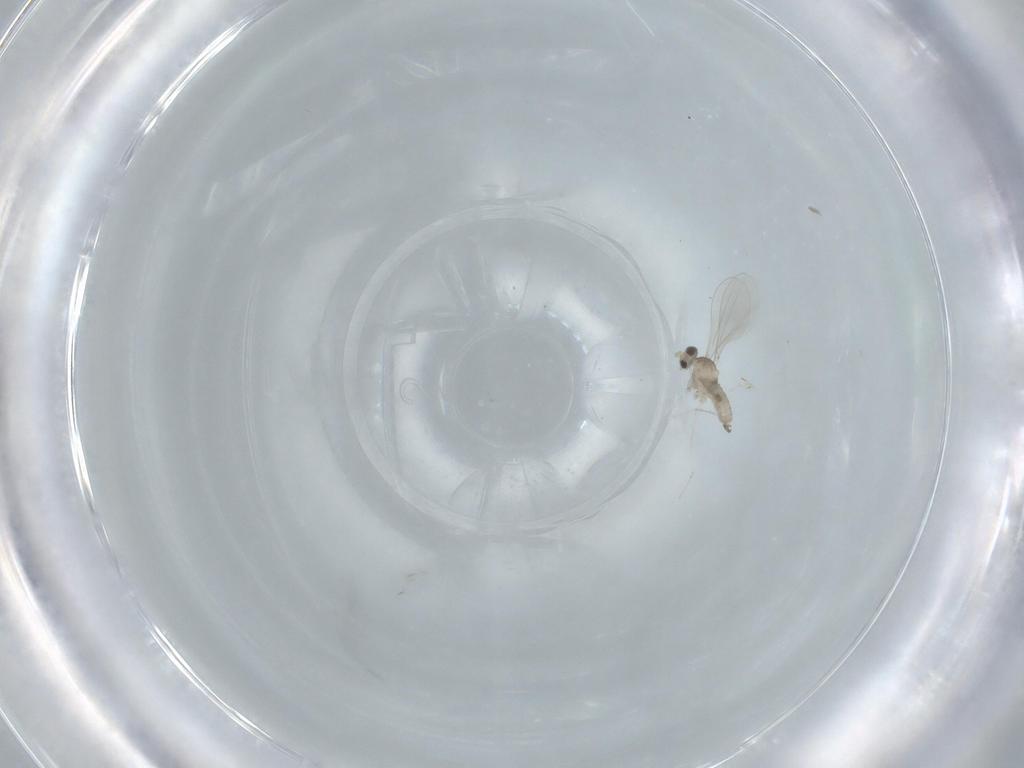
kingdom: Animalia
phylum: Arthropoda
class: Insecta
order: Diptera
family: Cecidomyiidae
